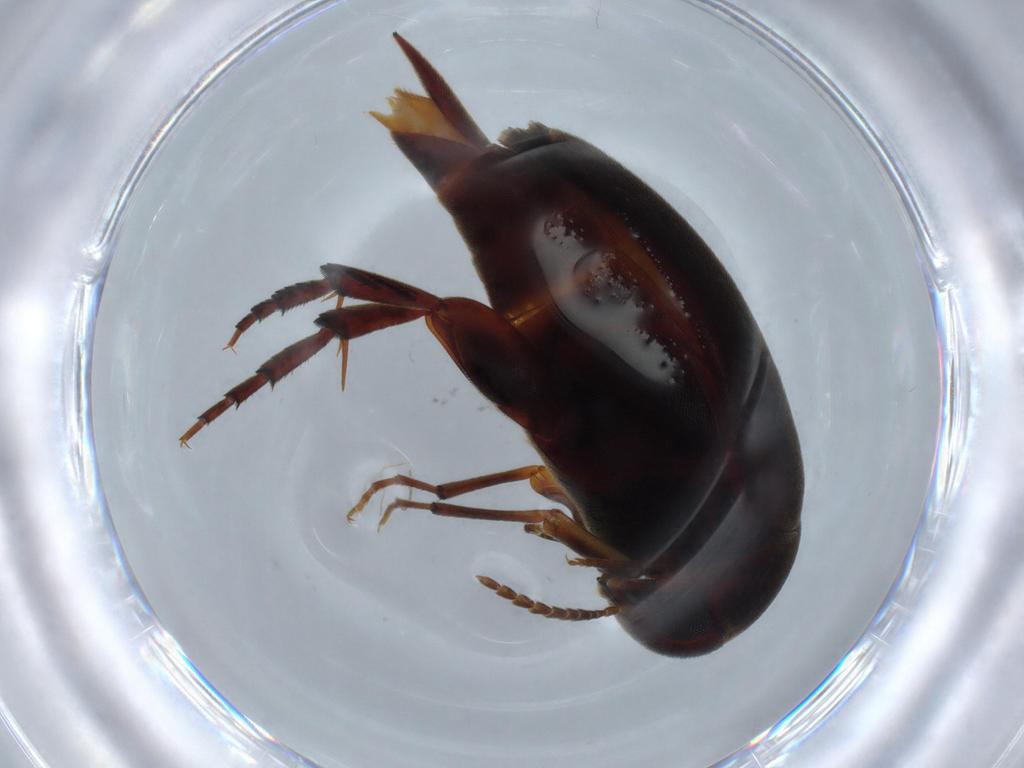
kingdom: Animalia
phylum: Arthropoda
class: Insecta
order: Coleoptera
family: Mordellidae
